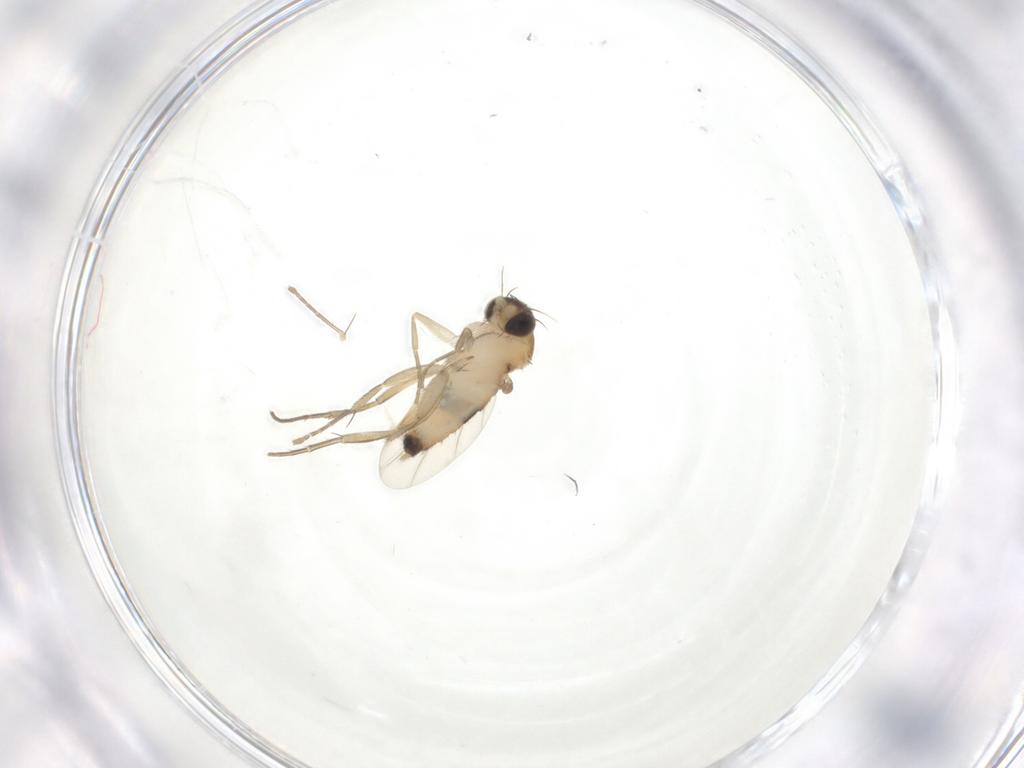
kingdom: Animalia
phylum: Arthropoda
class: Insecta
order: Diptera
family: Phoridae
